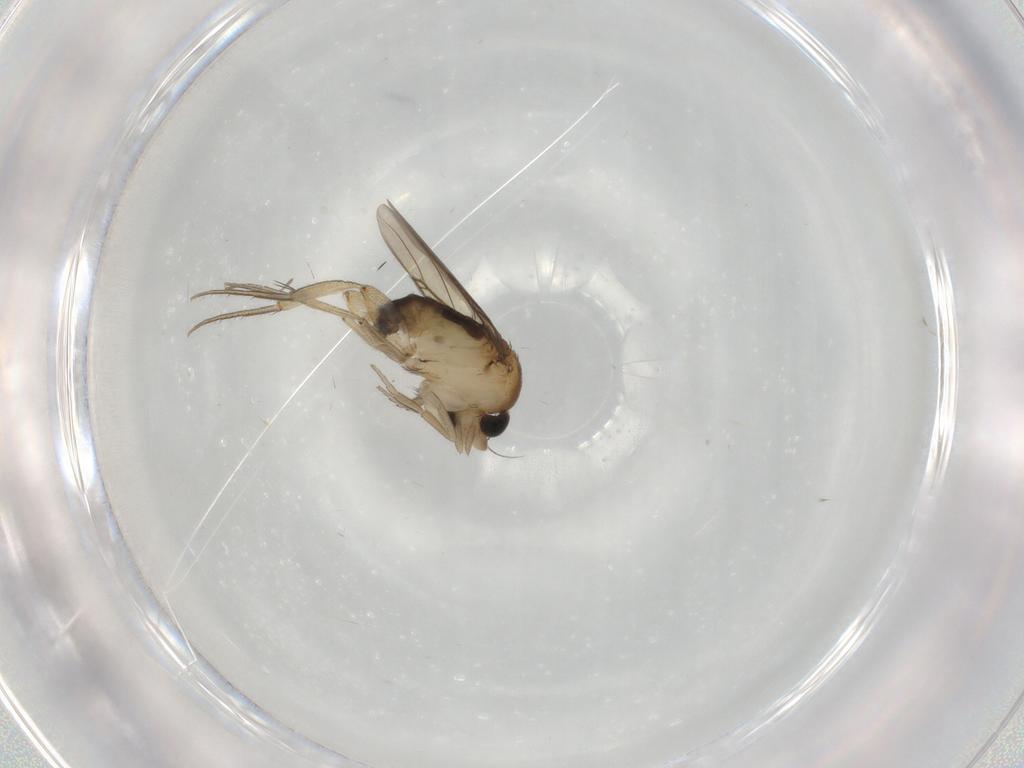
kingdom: Animalia
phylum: Arthropoda
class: Insecta
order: Diptera
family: Phoridae
